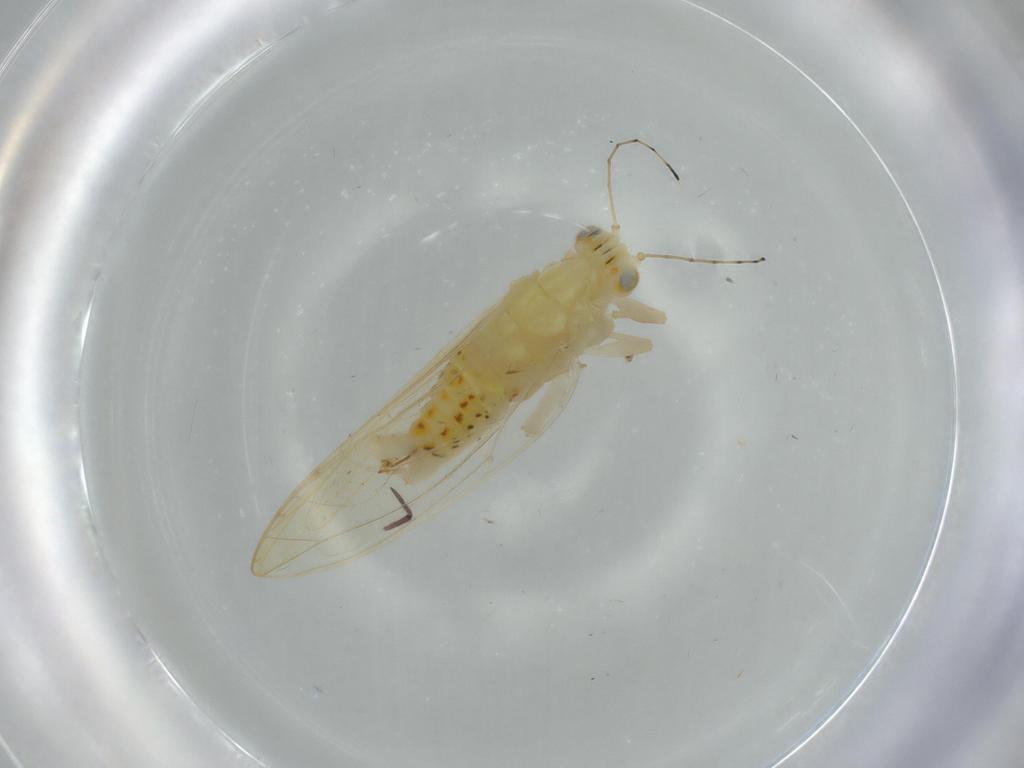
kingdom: Animalia
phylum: Arthropoda
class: Insecta
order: Hemiptera
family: Triozidae
